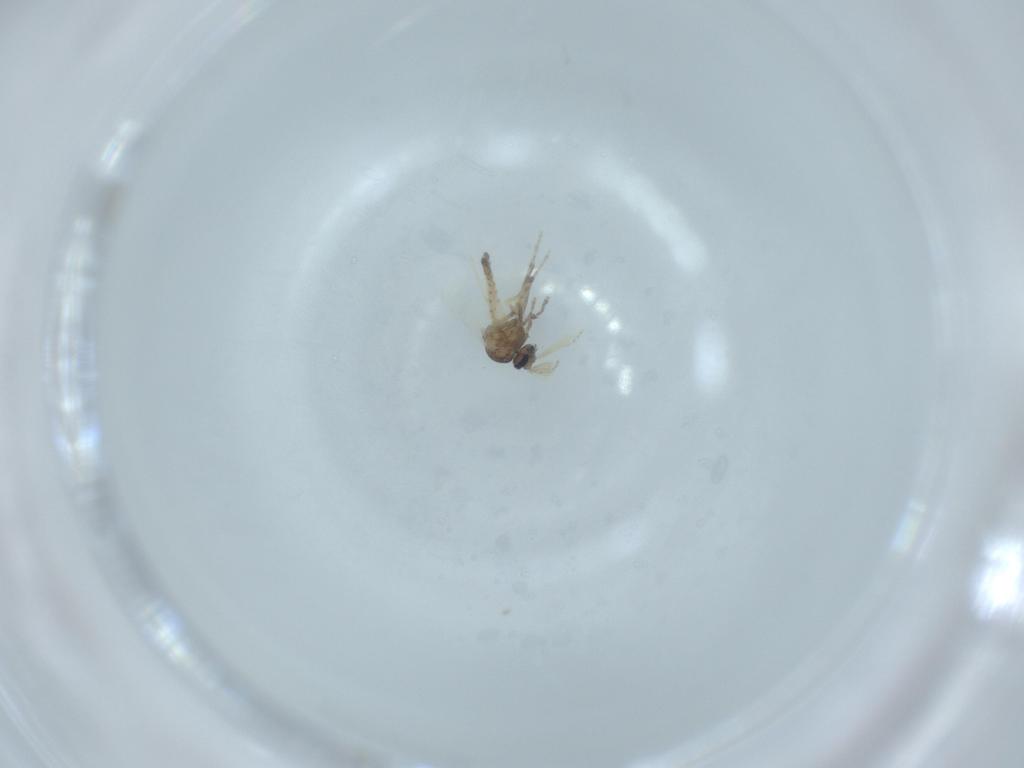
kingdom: Animalia
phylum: Arthropoda
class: Insecta
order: Diptera
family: Ceratopogonidae
